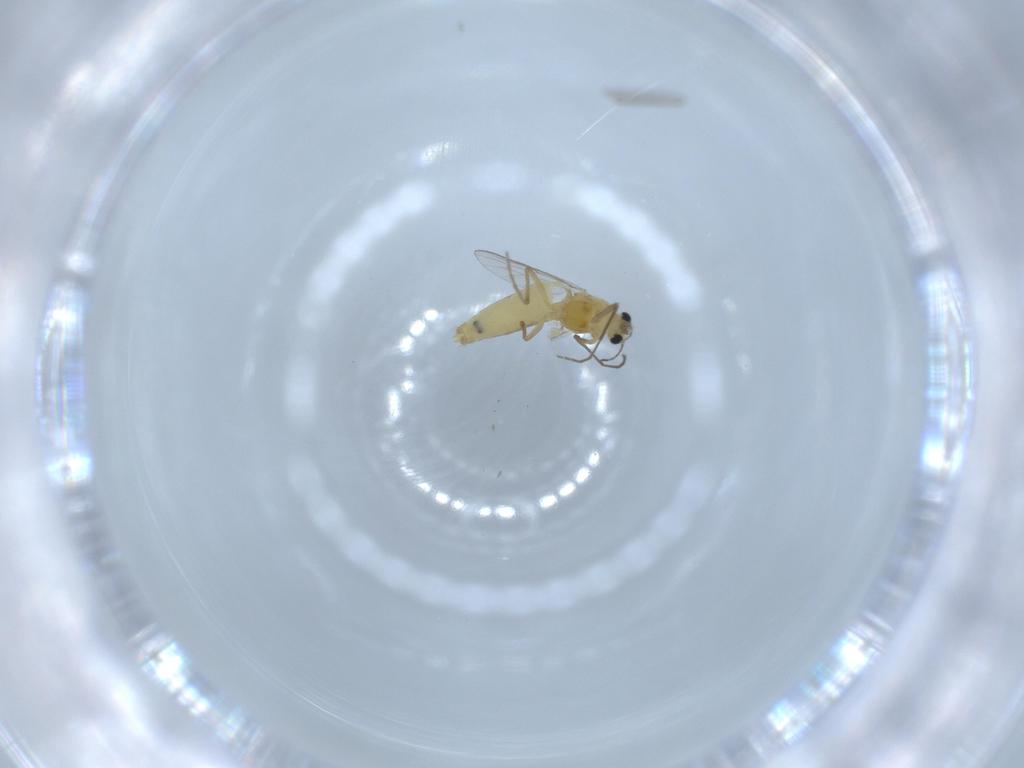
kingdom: Animalia
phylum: Arthropoda
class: Insecta
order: Diptera
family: Chironomidae
